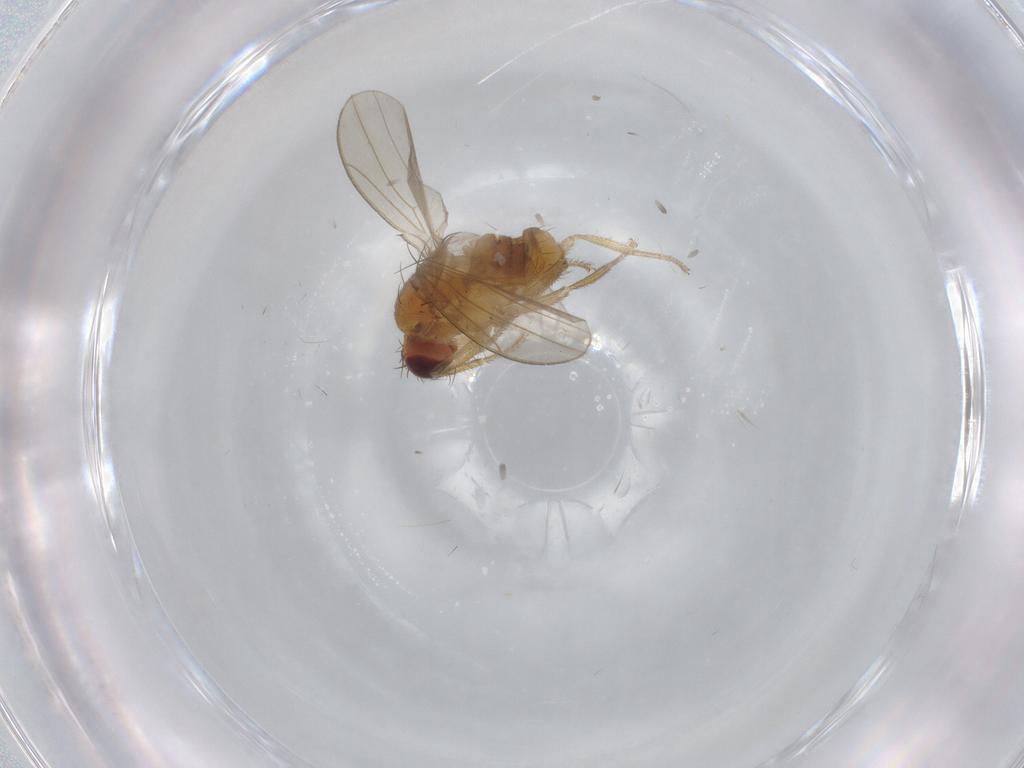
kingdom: Animalia
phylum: Arthropoda
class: Insecta
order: Diptera
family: Drosophilidae
